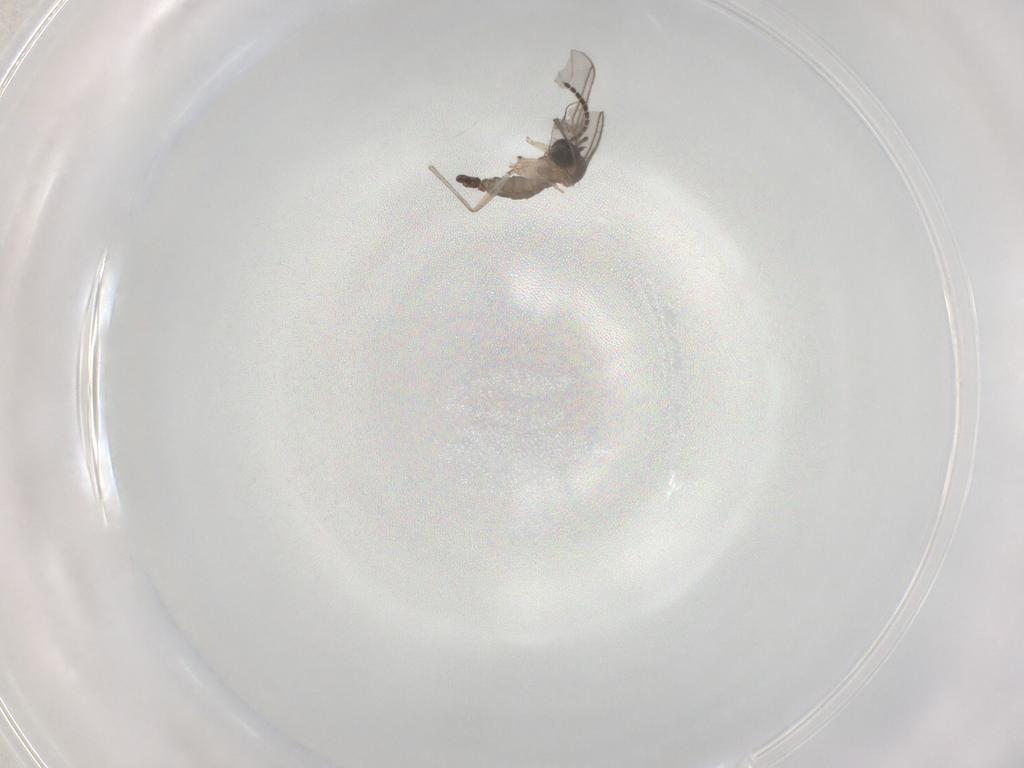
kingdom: Animalia
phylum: Arthropoda
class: Insecta
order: Diptera
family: Sciaridae
